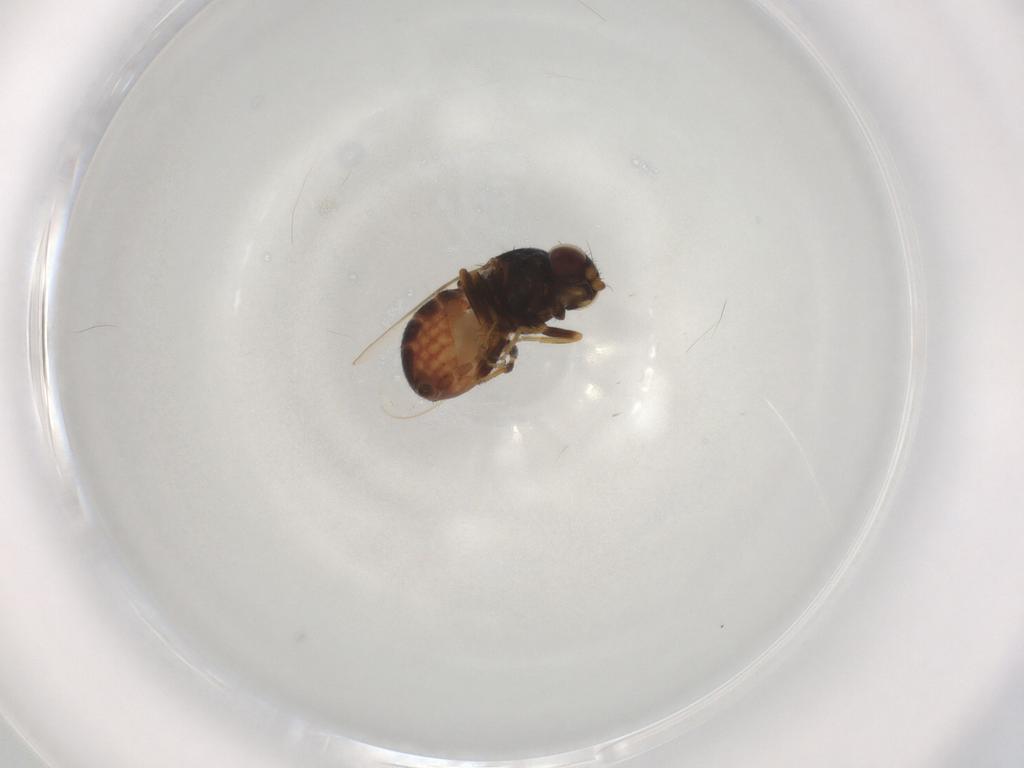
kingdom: Animalia
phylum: Arthropoda
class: Insecta
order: Diptera
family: Chloropidae
